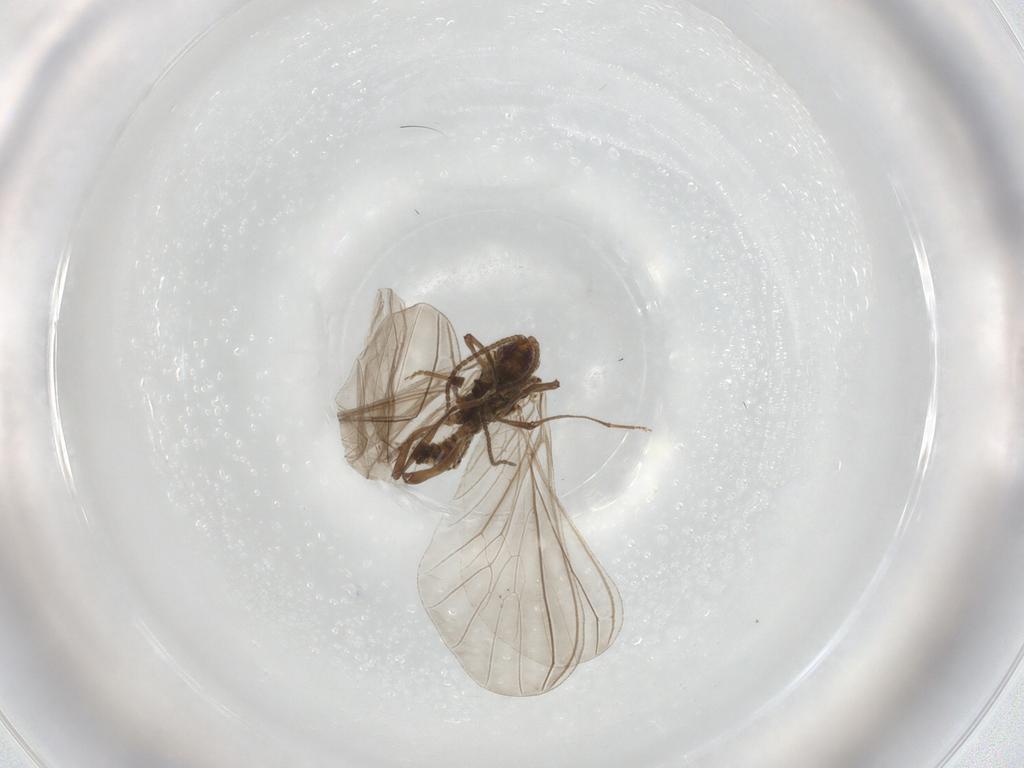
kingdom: Animalia
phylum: Arthropoda
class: Insecta
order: Neuroptera
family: Coniopterygidae
